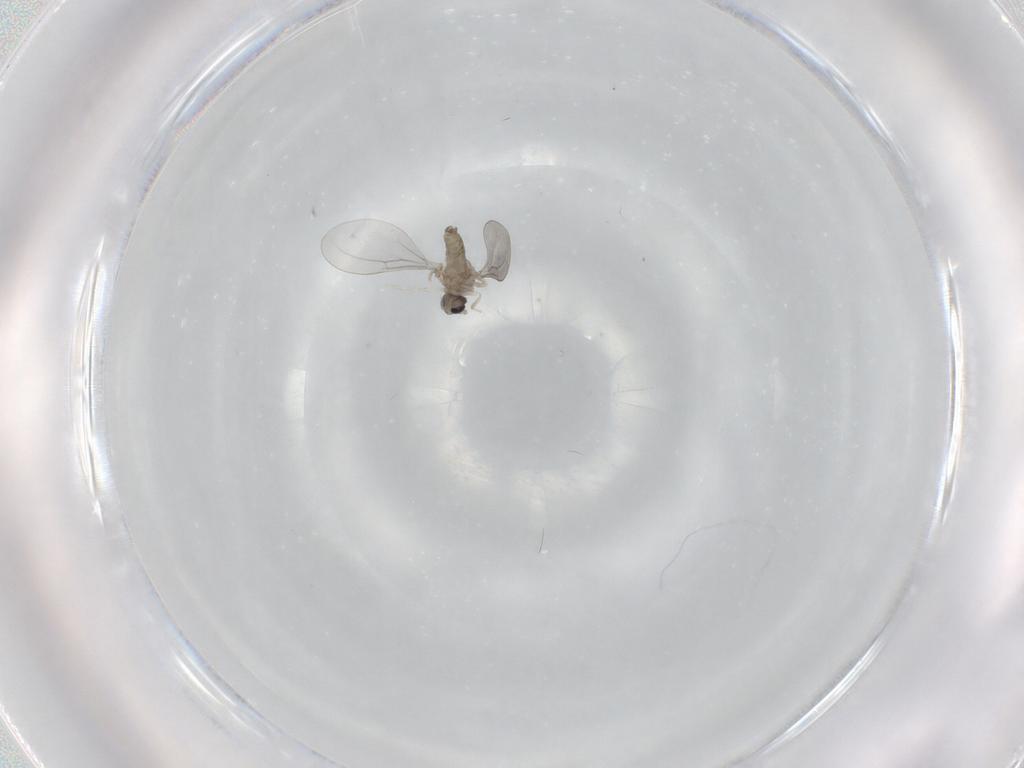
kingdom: Animalia
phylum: Arthropoda
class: Insecta
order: Diptera
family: Cecidomyiidae
